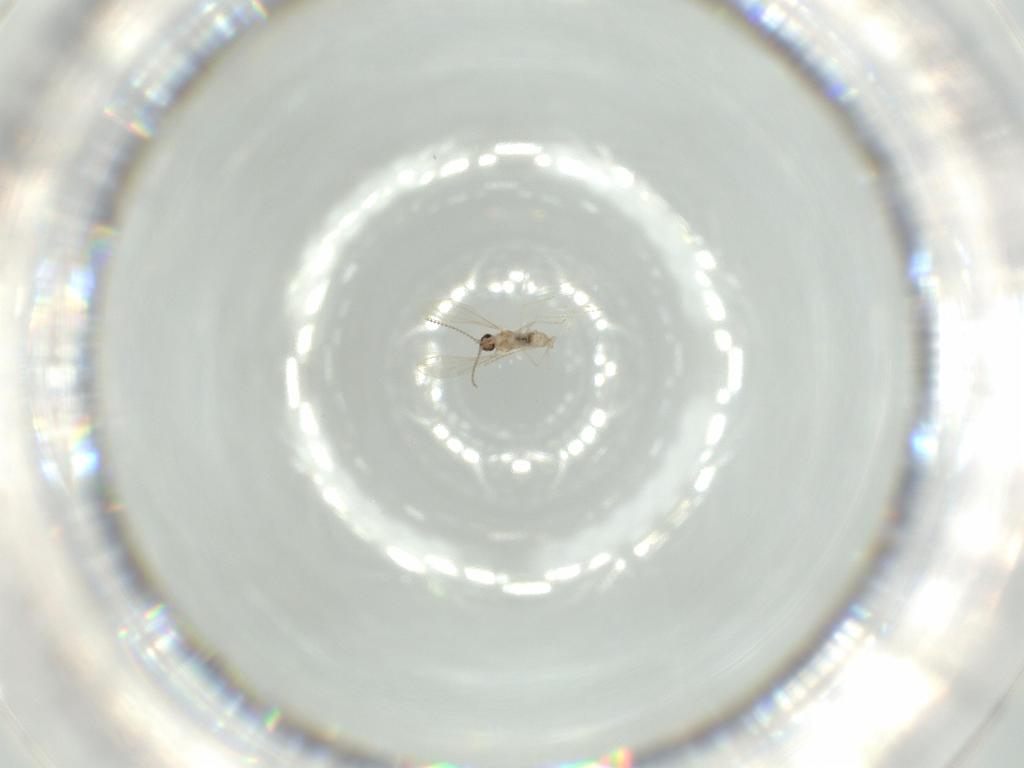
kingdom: Animalia
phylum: Arthropoda
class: Insecta
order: Diptera
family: Cecidomyiidae
